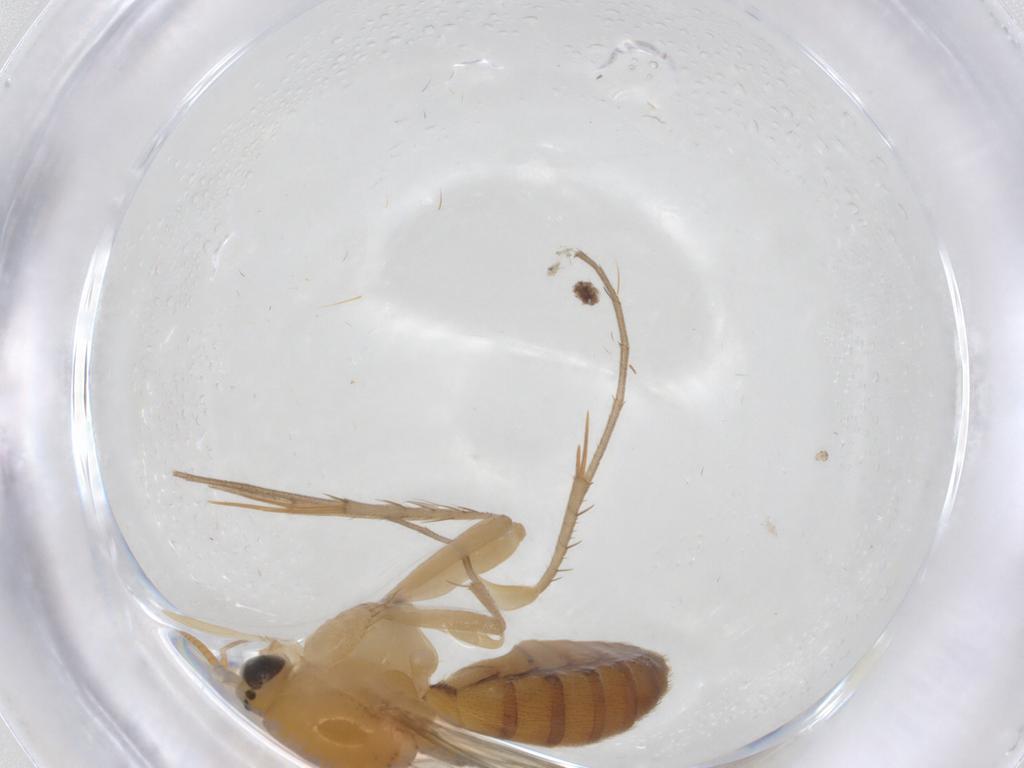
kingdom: Animalia
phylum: Arthropoda
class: Insecta
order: Diptera
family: Mycetophilidae
